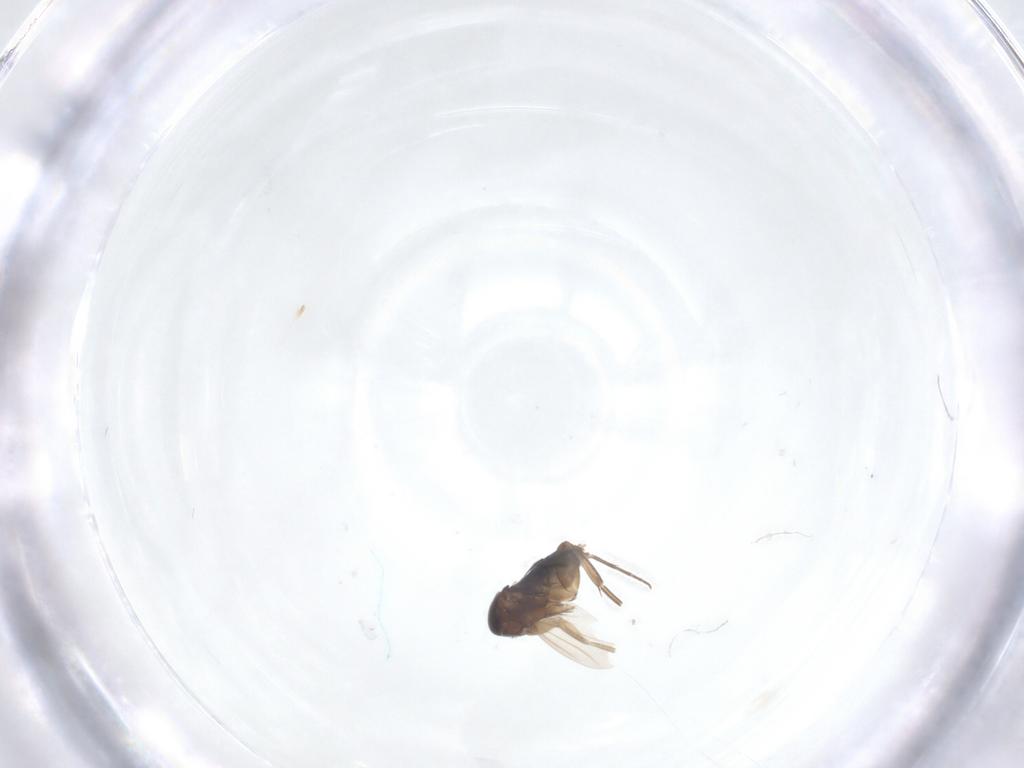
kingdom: Animalia
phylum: Arthropoda
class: Insecta
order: Diptera
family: Phoridae
